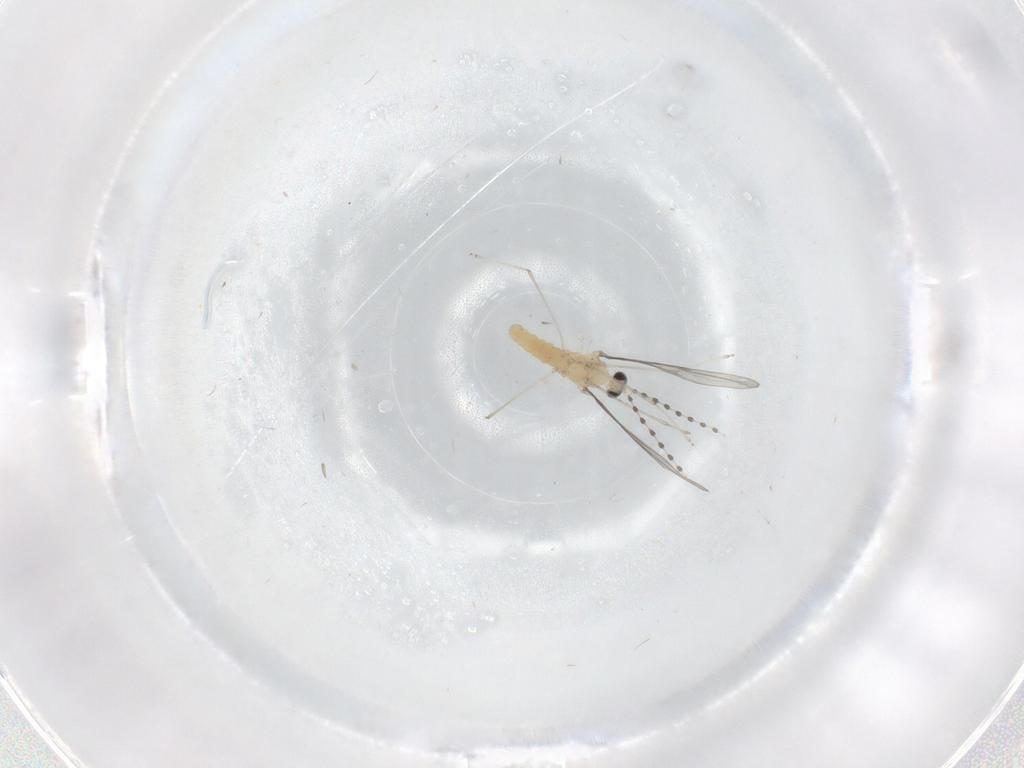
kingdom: Animalia
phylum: Arthropoda
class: Insecta
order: Diptera
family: Cecidomyiidae
